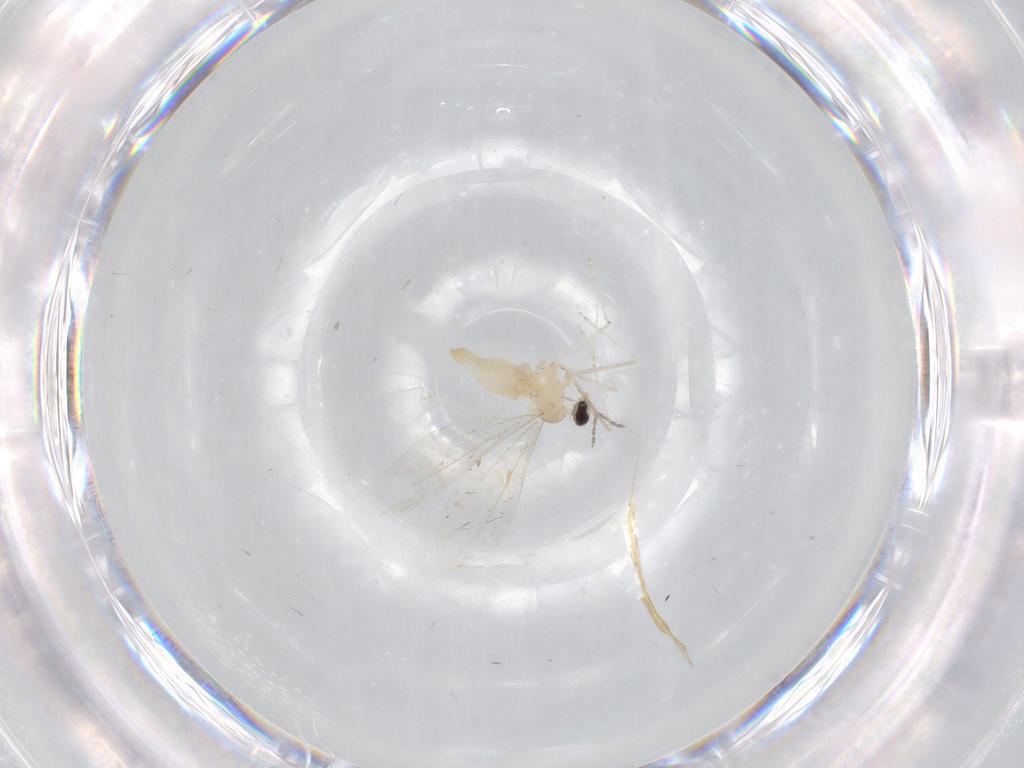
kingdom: Animalia
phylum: Arthropoda
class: Insecta
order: Diptera
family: Cecidomyiidae
